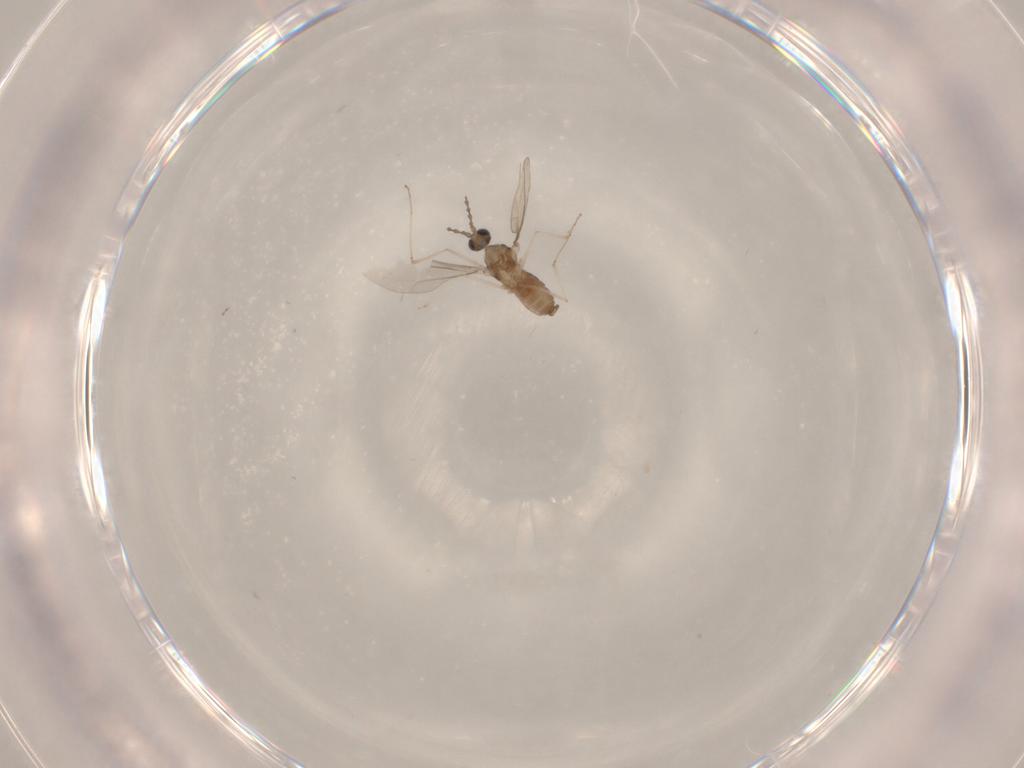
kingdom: Animalia
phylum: Arthropoda
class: Insecta
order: Diptera
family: Cecidomyiidae
